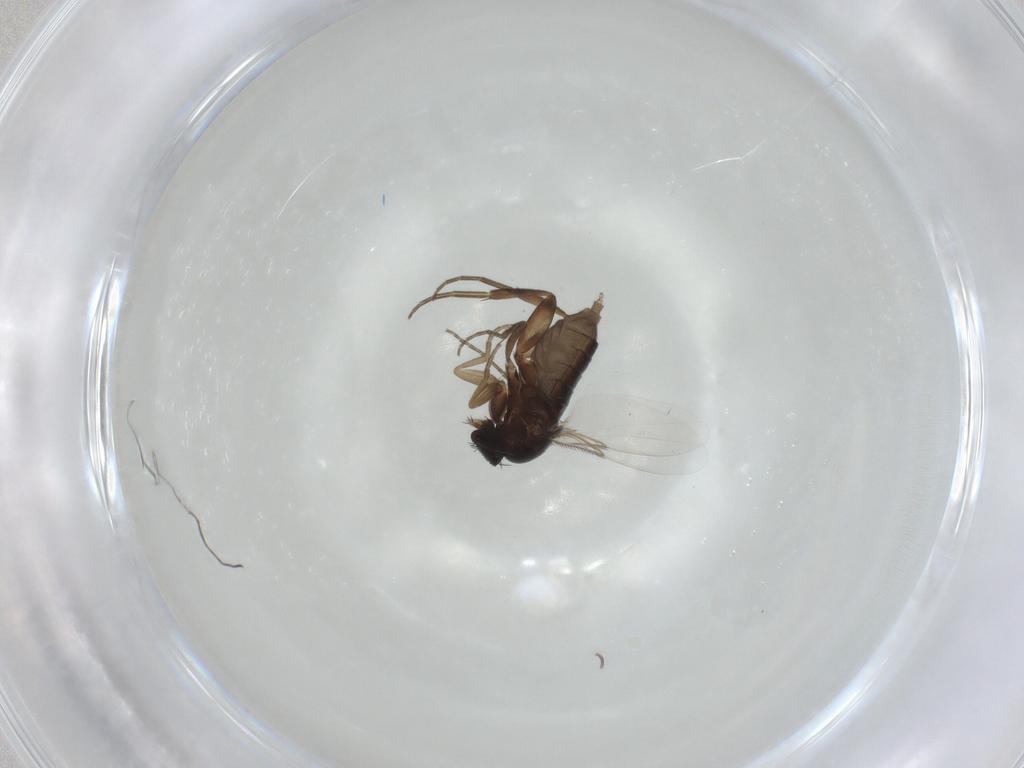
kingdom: Animalia
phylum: Arthropoda
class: Insecta
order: Diptera
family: Phoridae
